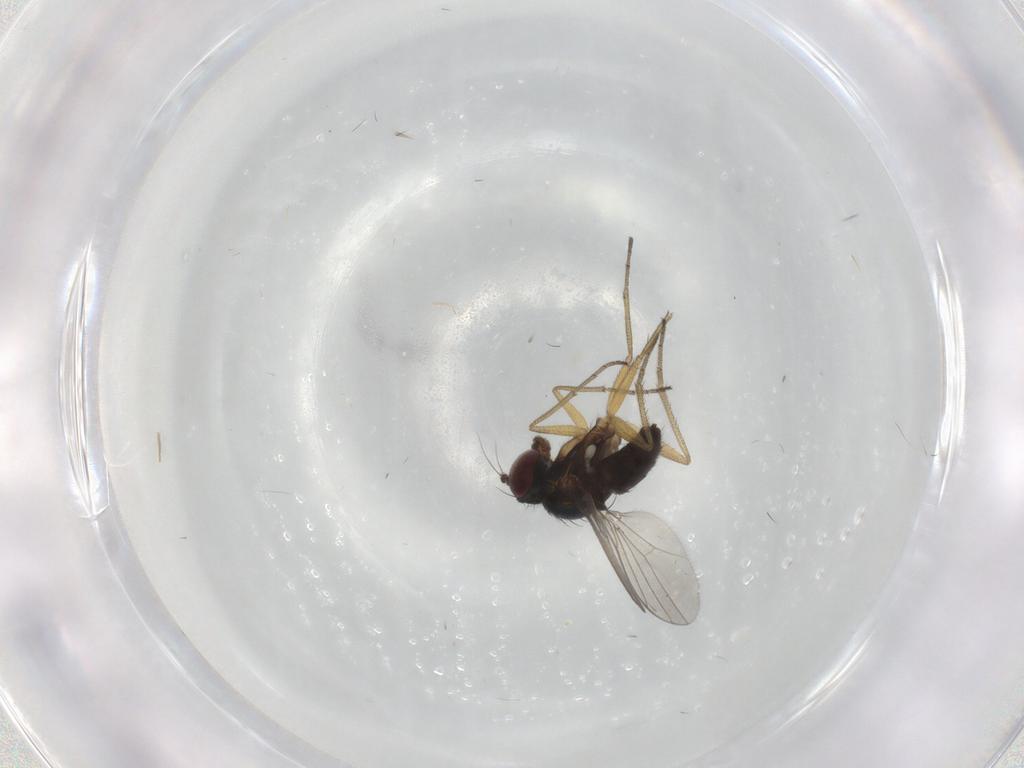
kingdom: Animalia
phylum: Arthropoda
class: Insecta
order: Diptera
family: Dolichopodidae
